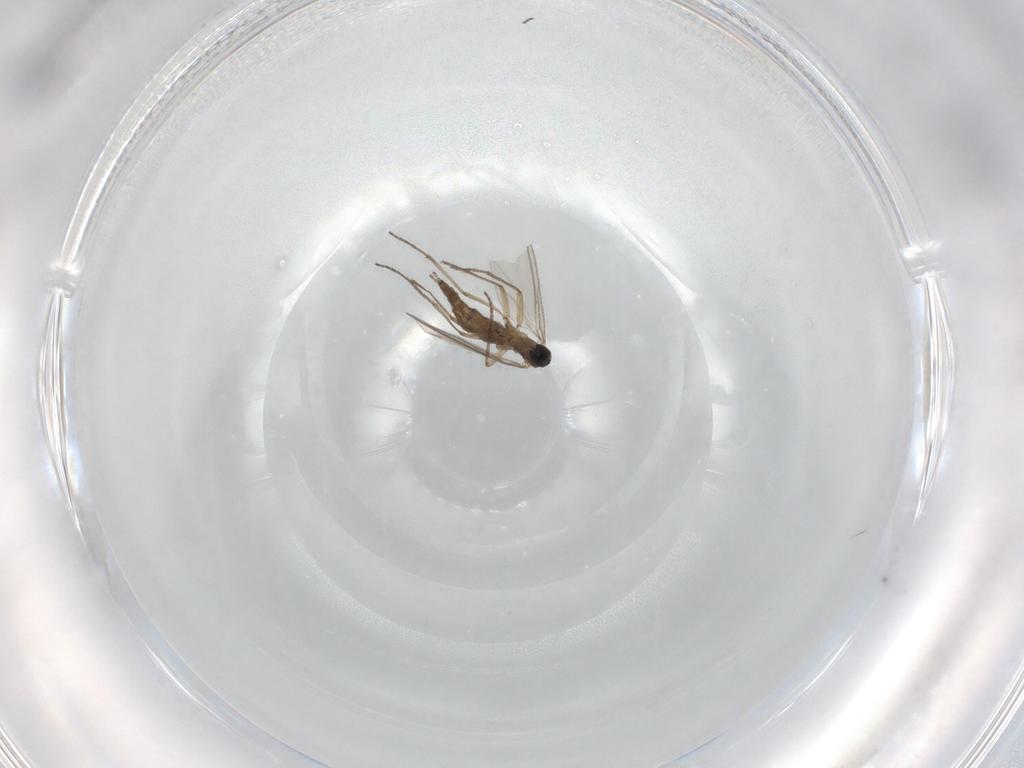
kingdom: Animalia
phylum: Arthropoda
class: Insecta
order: Diptera
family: Sciaridae
